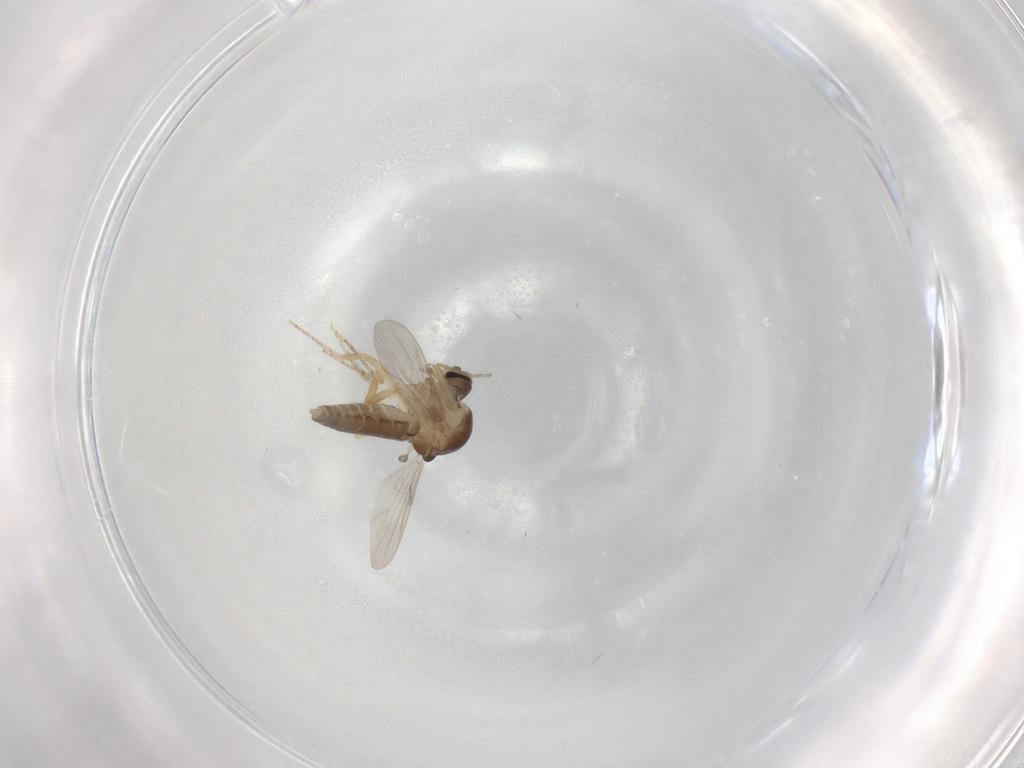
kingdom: Animalia
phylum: Arthropoda
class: Insecta
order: Diptera
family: Ceratopogonidae
